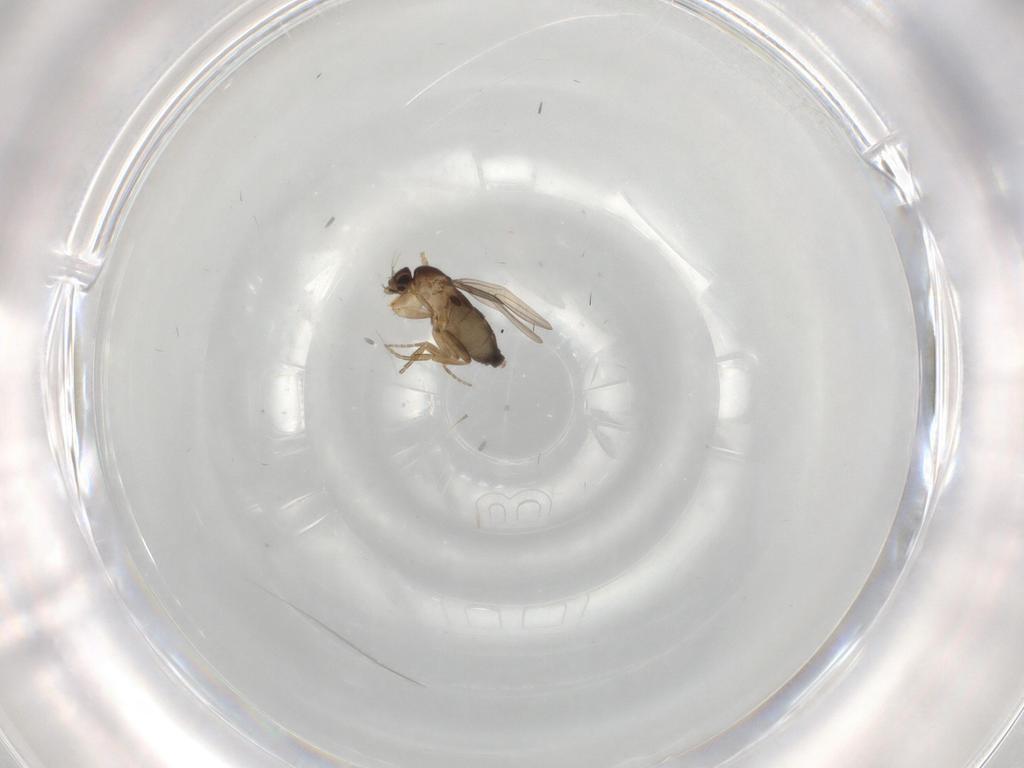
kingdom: Animalia
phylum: Arthropoda
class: Insecta
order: Diptera
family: Phoridae
